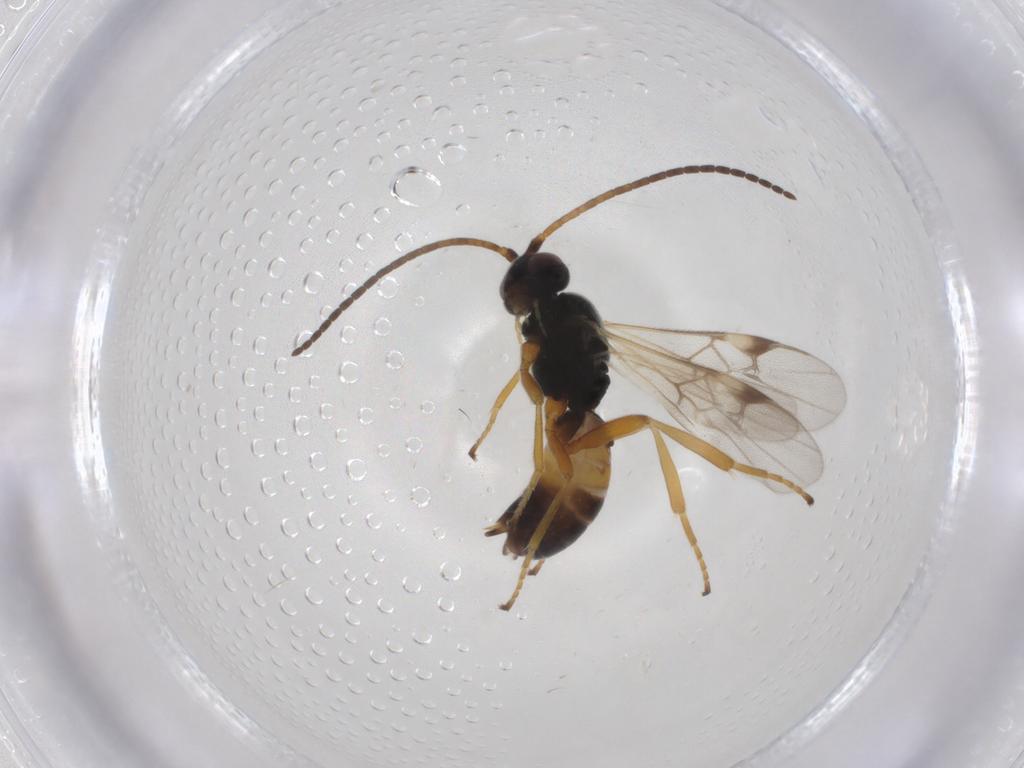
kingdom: Animalia
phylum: Arthropoda
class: Insecta
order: Hymenoptera
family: Braconidae
